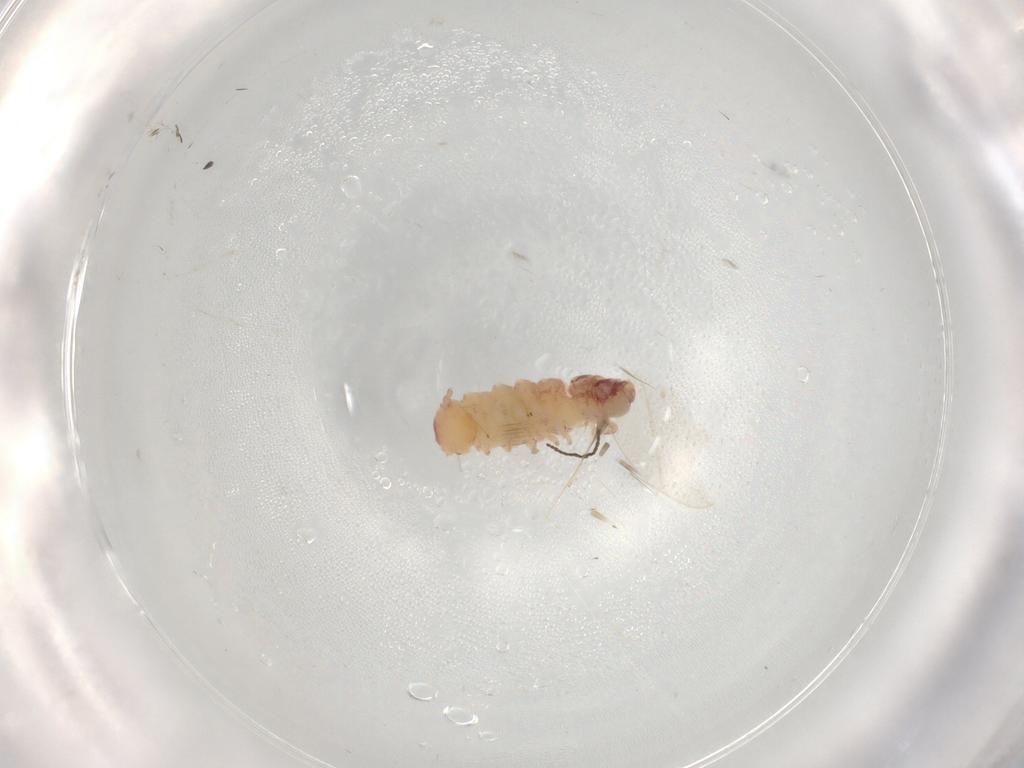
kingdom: Animalia
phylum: Arthropoda
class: Diplopoda
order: Polyxenida
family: Polyxenidae
